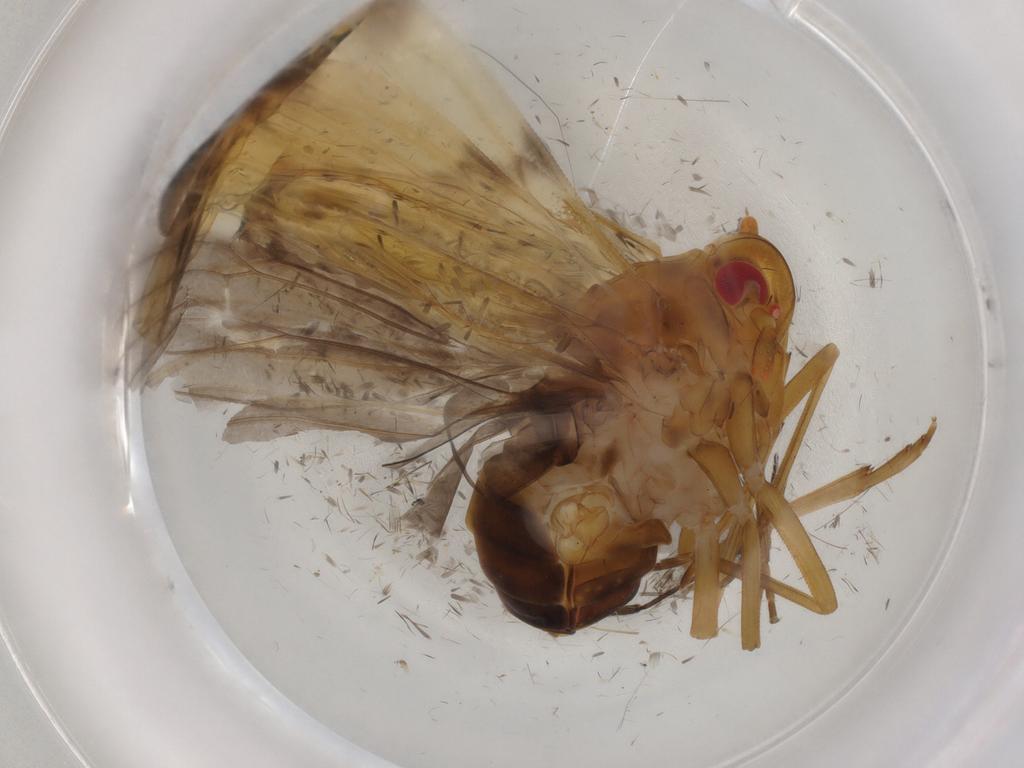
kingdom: Animalia
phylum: Arthropoda
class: Insecta
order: Hemiptera
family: Achilixiidae
